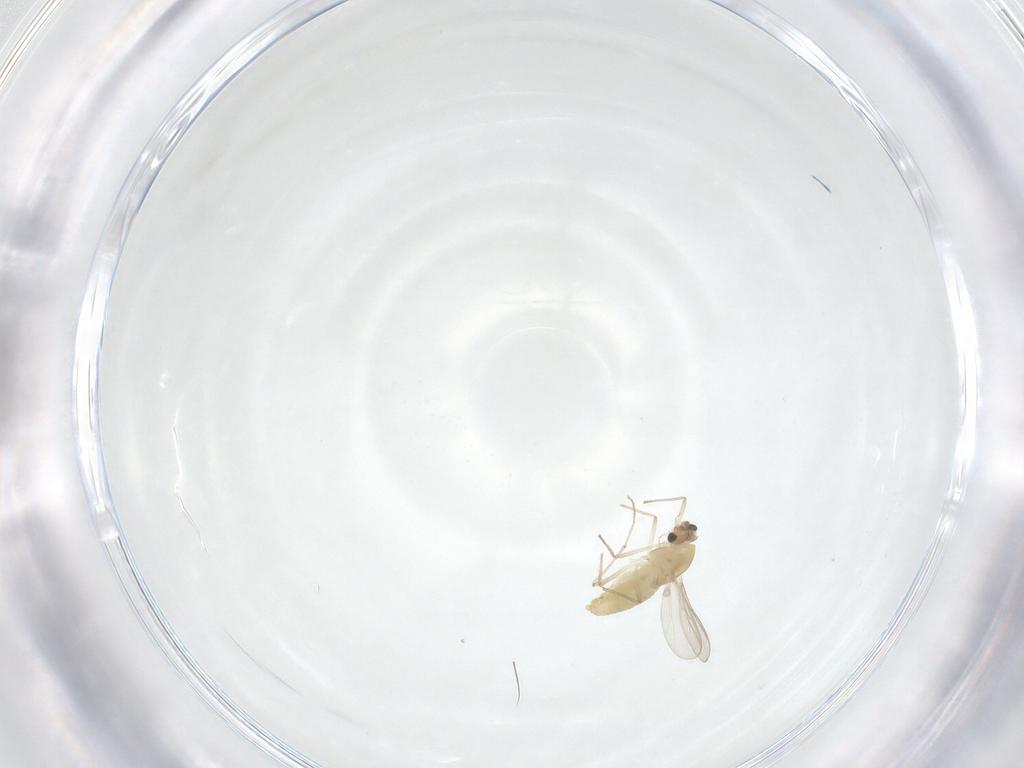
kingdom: Animalia
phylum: Arthropoda
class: Insecta
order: Diptera
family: Chironomidae
